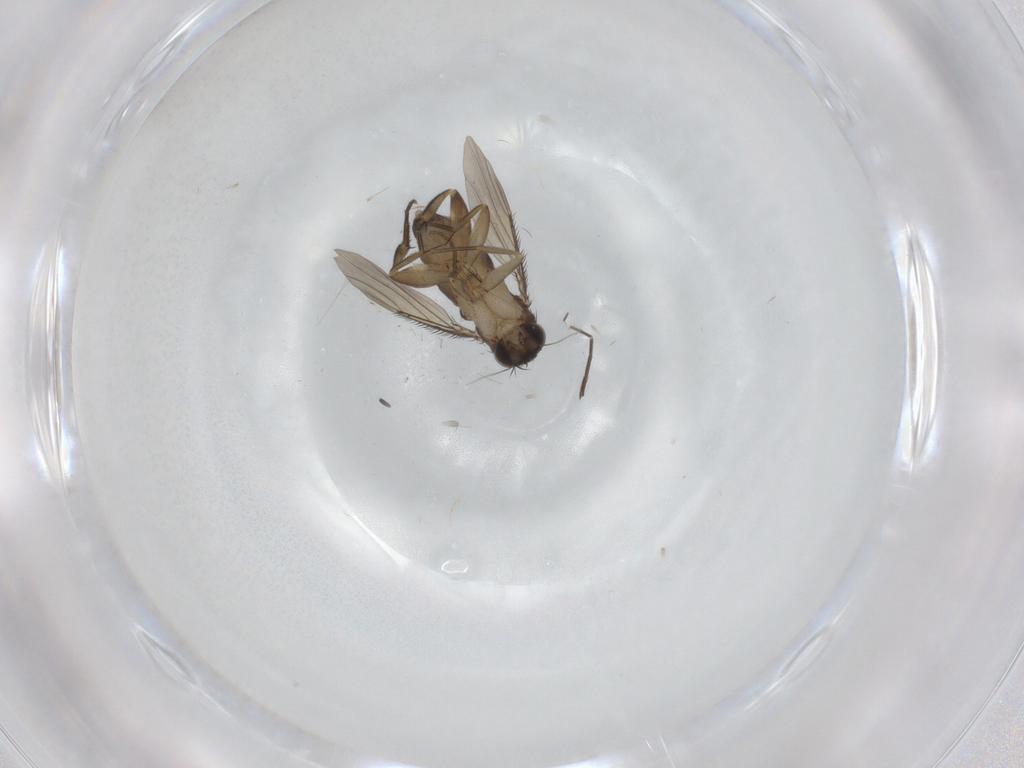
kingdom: Animalia
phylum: Arthropoda
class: Insecta
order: Diptera
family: Phoridae
